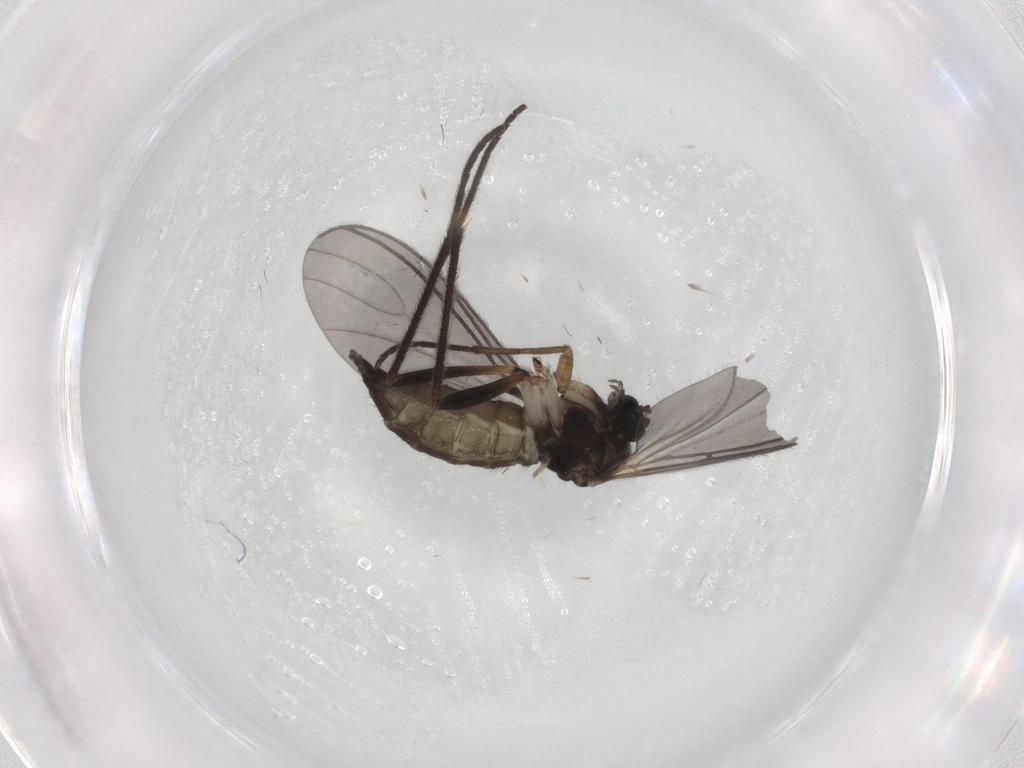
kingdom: Animalia
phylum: Arthropoda
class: Insecta
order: Diptera
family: Sciaridae
